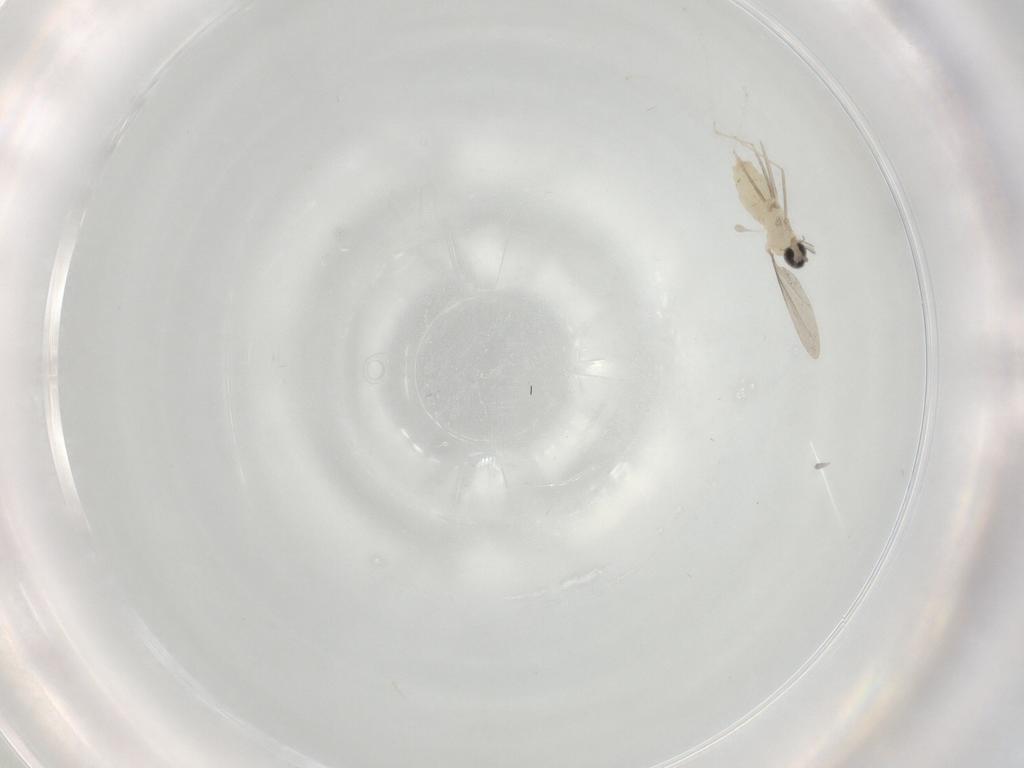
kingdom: Animalia
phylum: Arthropoda
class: Insecta
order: Diptera
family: Cecidomyiidae
